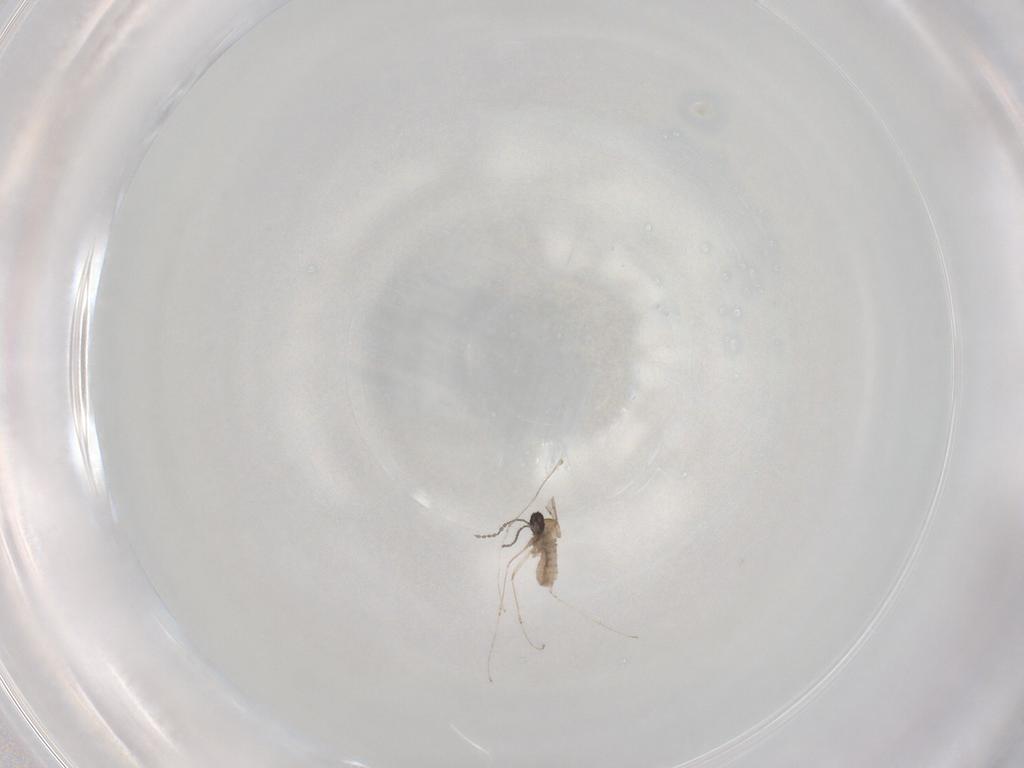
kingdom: Animalia
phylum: Arthropoda
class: Insecta
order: Diptera
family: Cecidomyiidae
